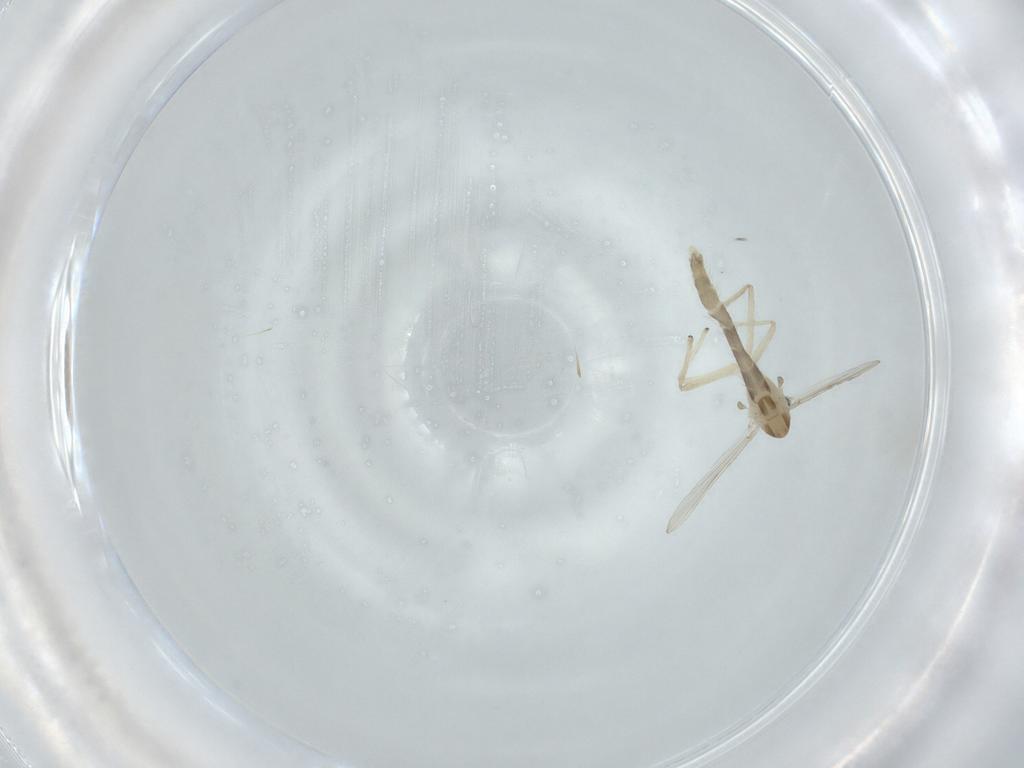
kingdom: Animalia
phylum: Arthropoda
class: Insecta
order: Diptera
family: Chironomidae
